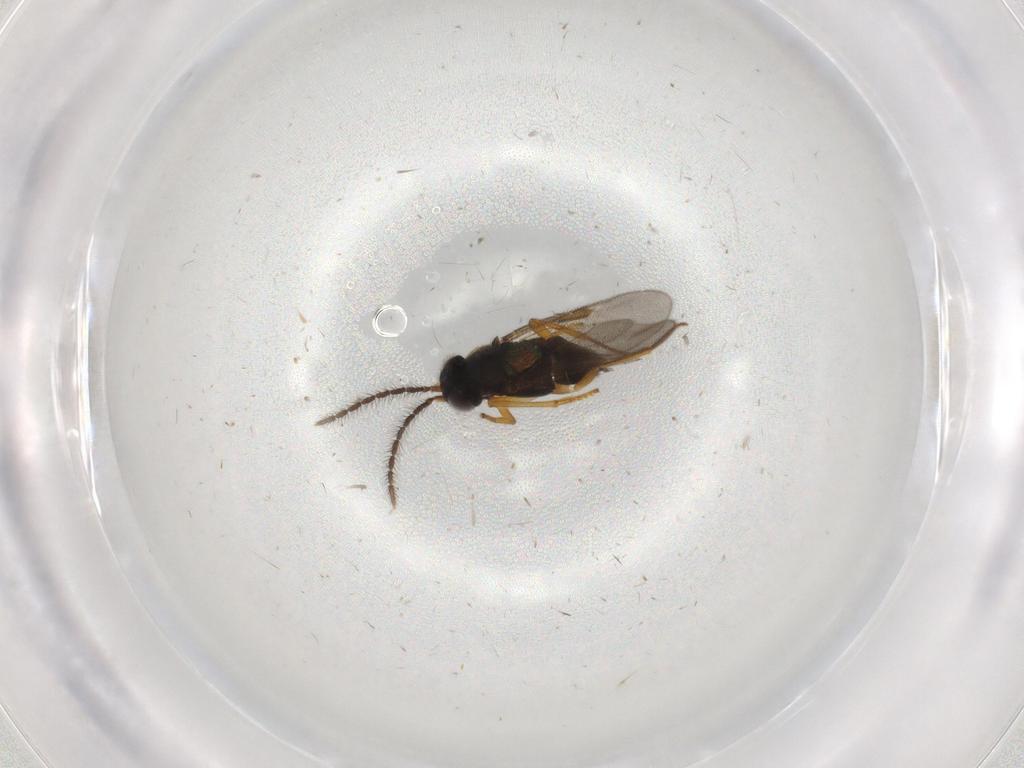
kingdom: Animalia
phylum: Arthropoda
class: Insecta
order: Hymenoptera
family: Encyrtidae
